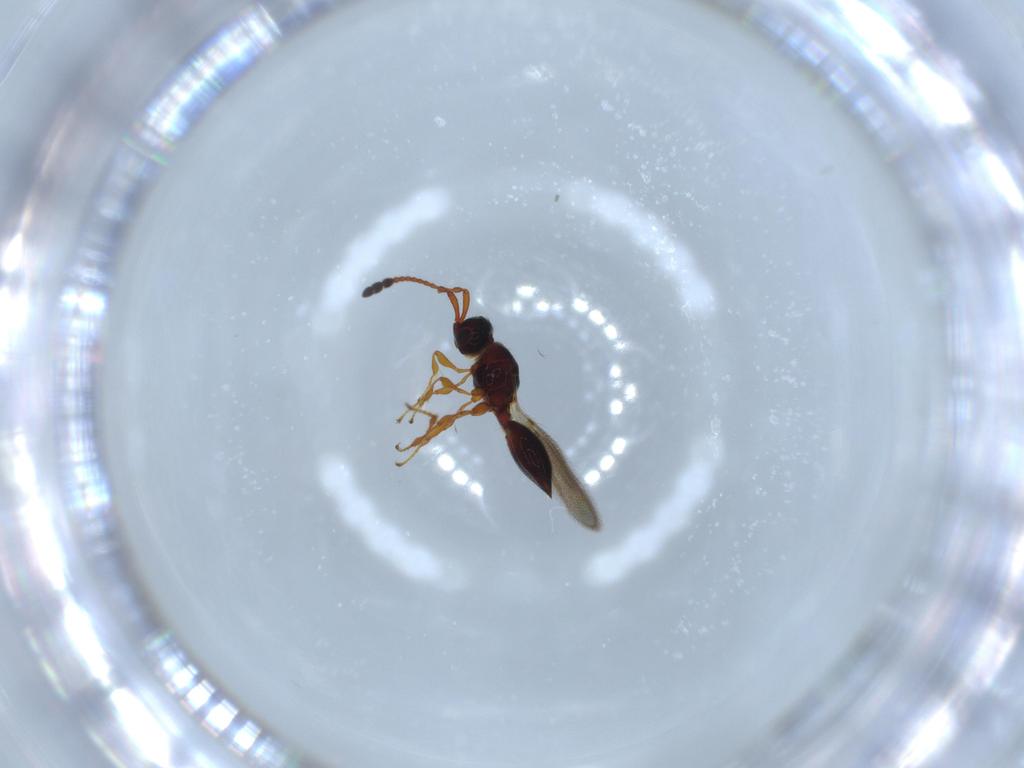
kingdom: Animalia
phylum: Arthropoda
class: Insecta
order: Hymenoptera
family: Diapriidae
